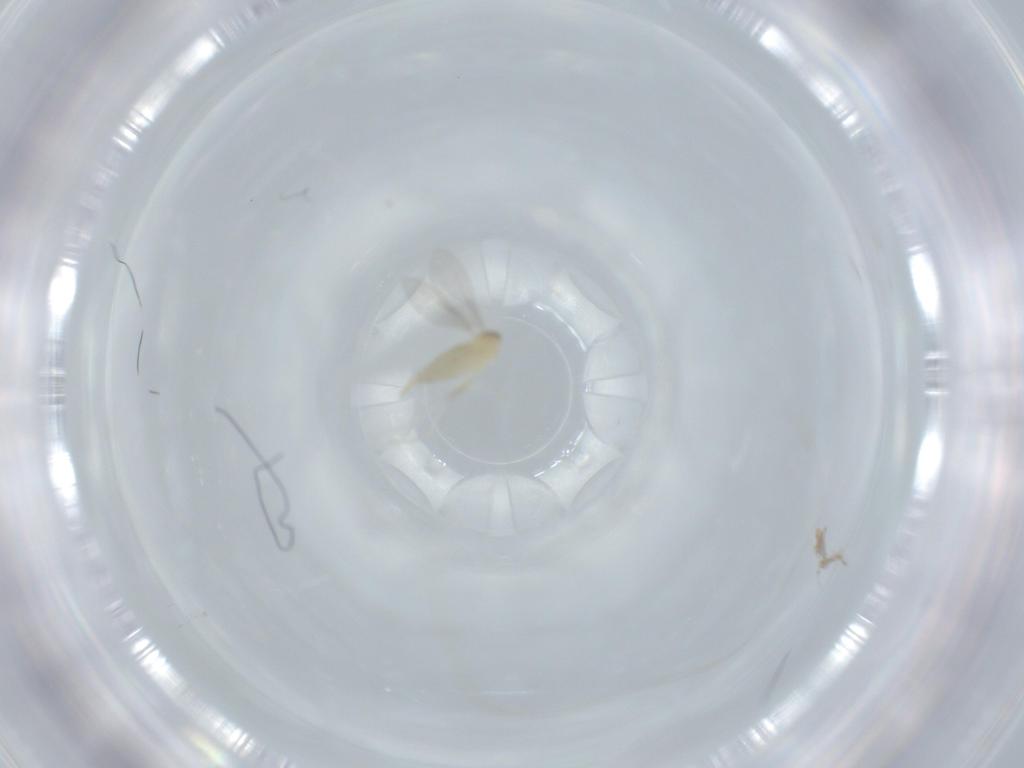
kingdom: Animalia
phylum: Arthropoda
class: Insecta
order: Diptera
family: Cecidomyiidae
